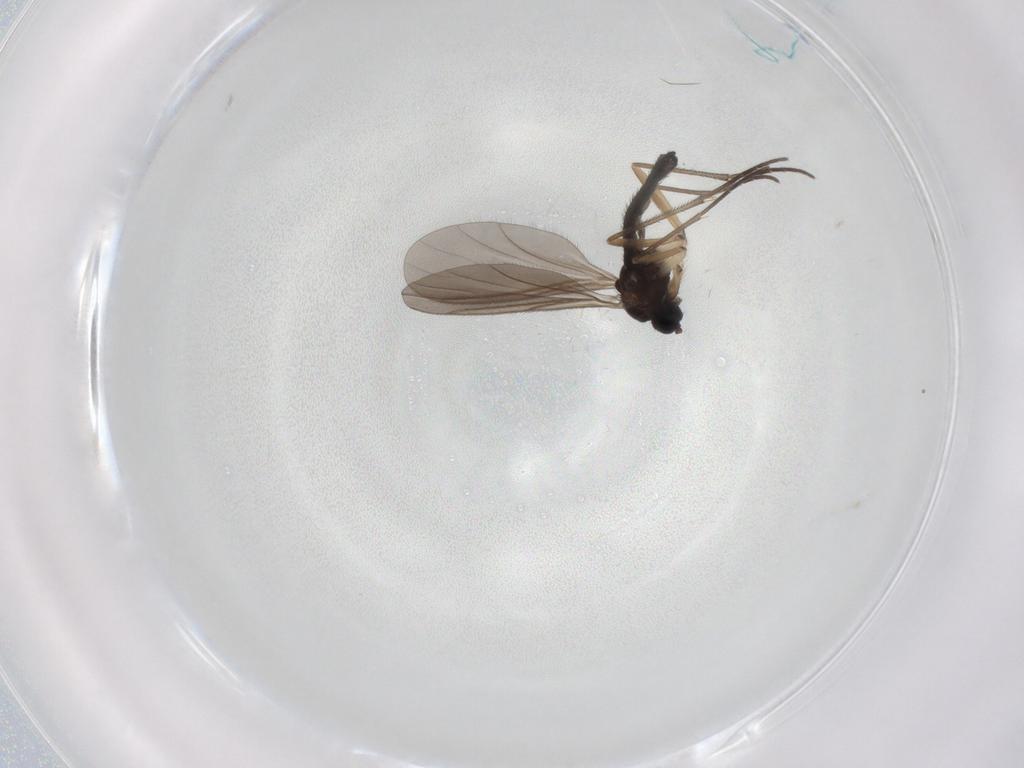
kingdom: Animalia
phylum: Arthropoda
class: Insecta
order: Diptera
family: Sciaridae
